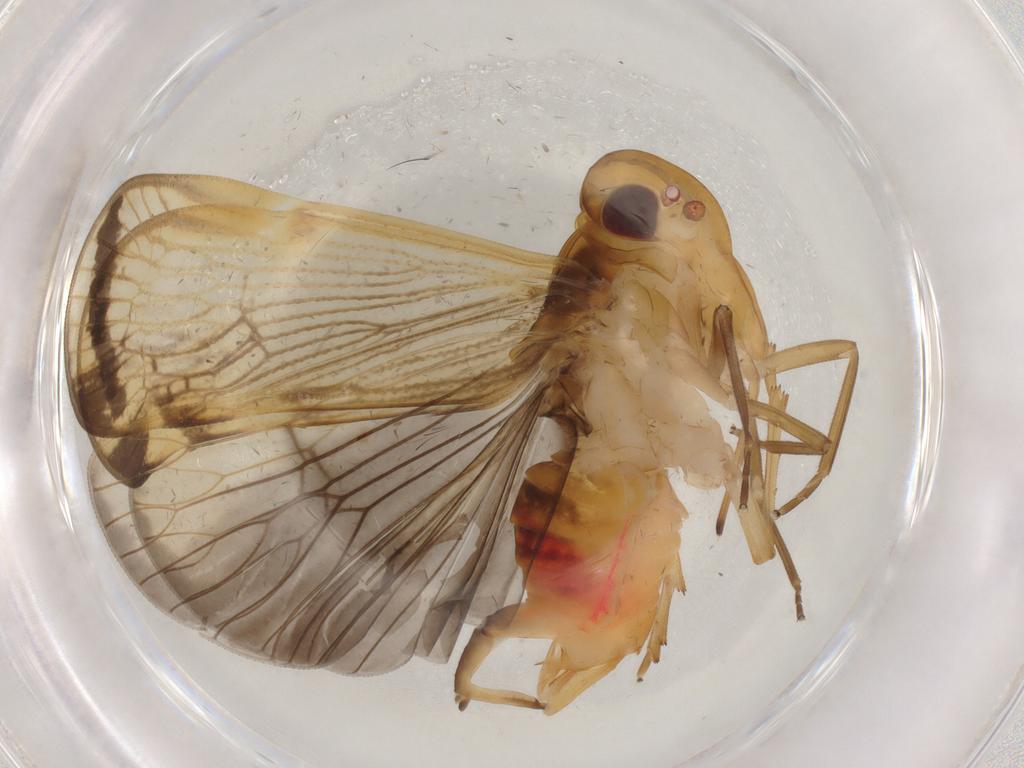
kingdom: Animalia
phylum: Arthropoda
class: Insecta
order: Hemiptera
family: Cixiidae
